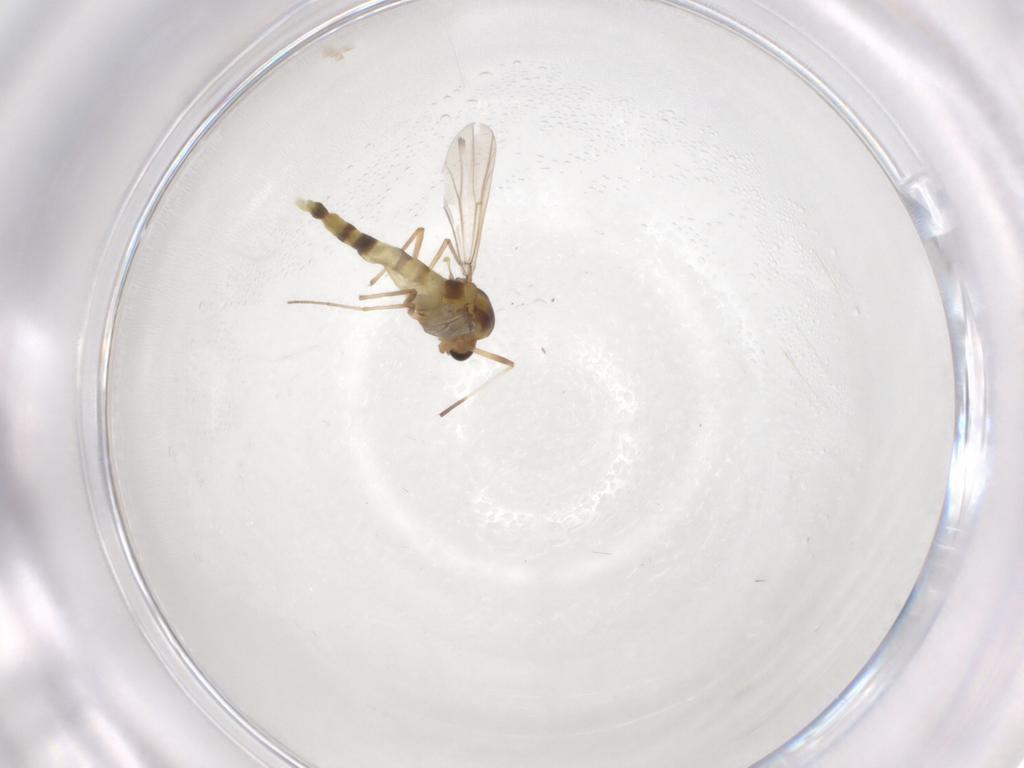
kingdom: Animalia
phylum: Arthropoda
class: Insecta
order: Diptera
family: Chironomidae
